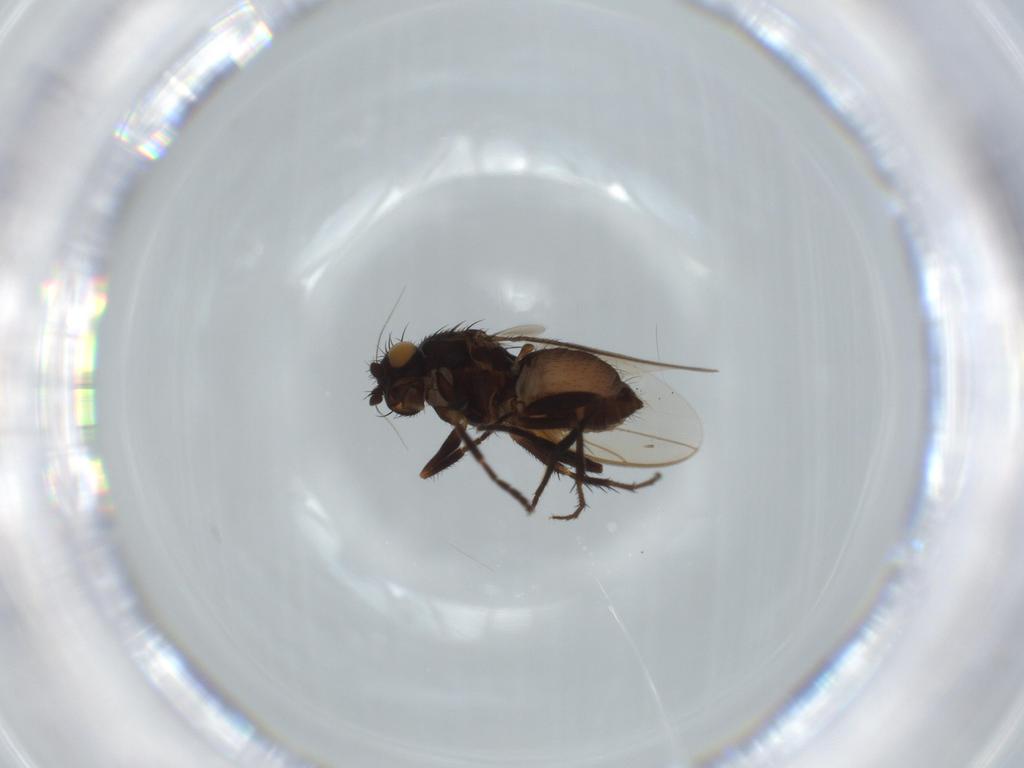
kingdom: Animalia
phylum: Arthropoda
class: Insecta
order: Diptera
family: Sphaeroceridae
